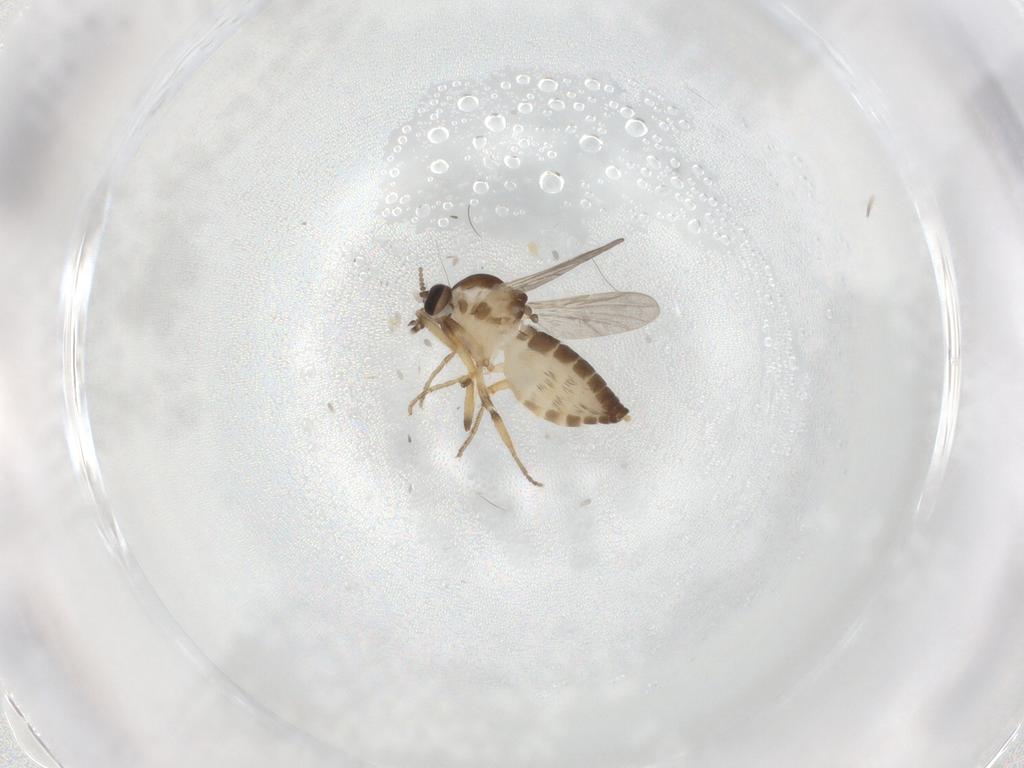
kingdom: Animalia
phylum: Arthropoda
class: Insecta
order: Diptera
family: Ceratopogonidae
